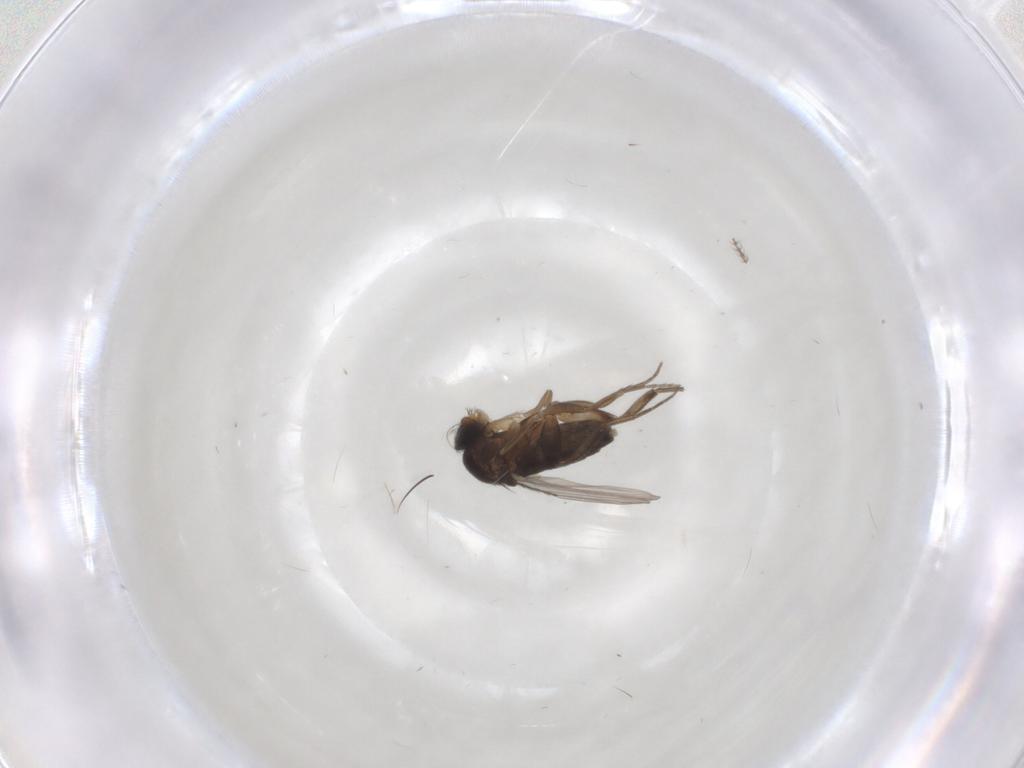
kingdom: Animalia
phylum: Arthropoda
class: Insecta
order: Diptera
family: Phoridae
